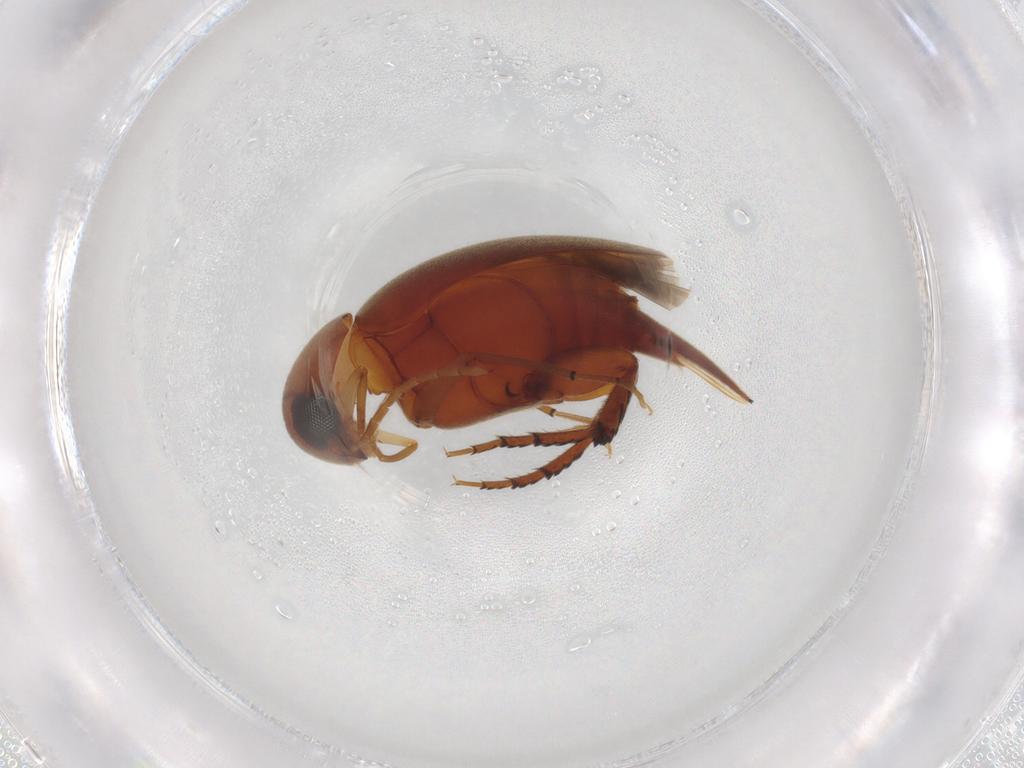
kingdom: Animalia
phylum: Arthropoda
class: Insecta
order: Coleoptera
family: Mordellidae
